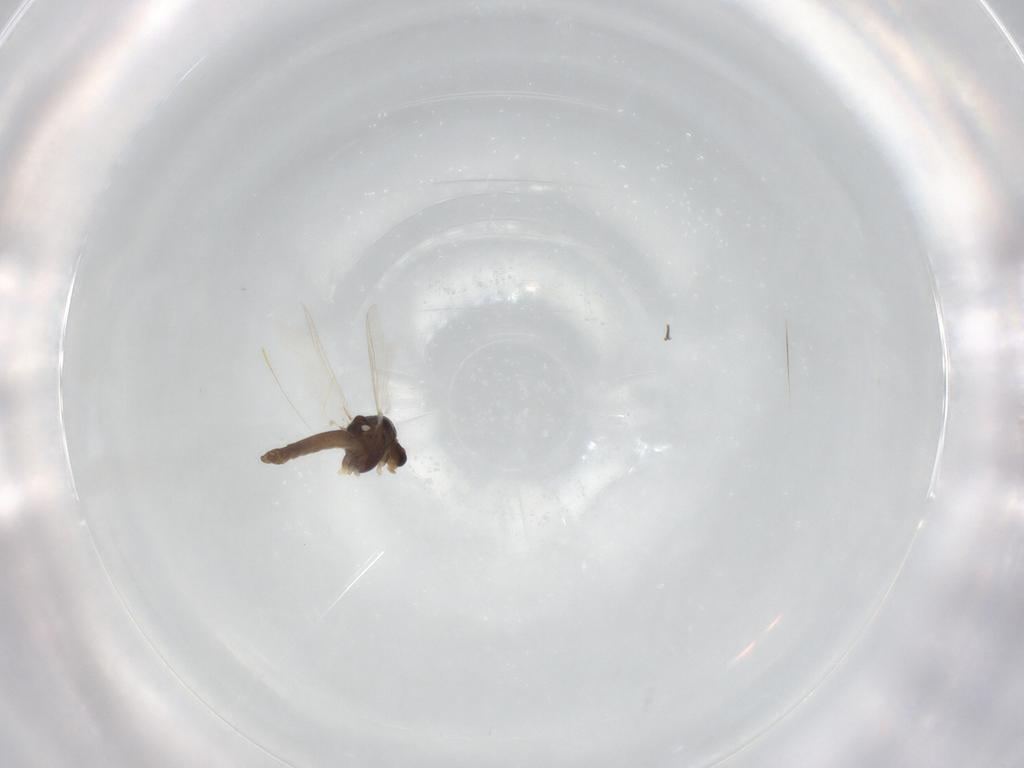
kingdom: Animalia
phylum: Arthropoda
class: Insecta
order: Diptera
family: Chironomidae
